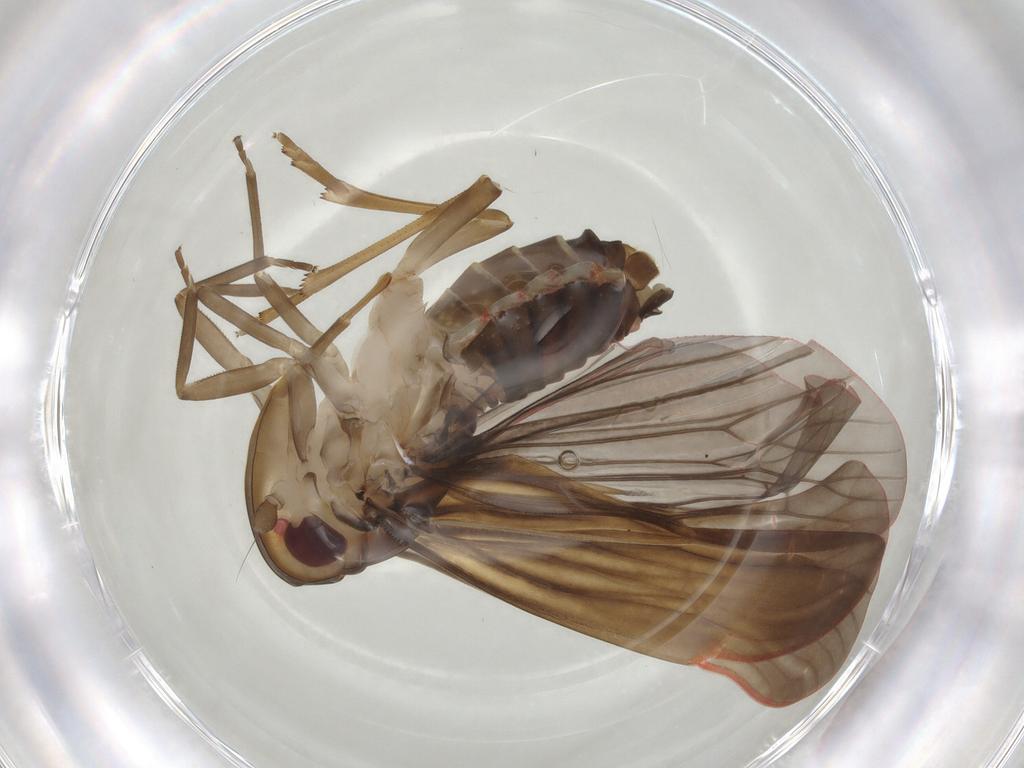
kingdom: Animalia
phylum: Arthropoda
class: Insecta
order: Hemiptera
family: Achilidae
